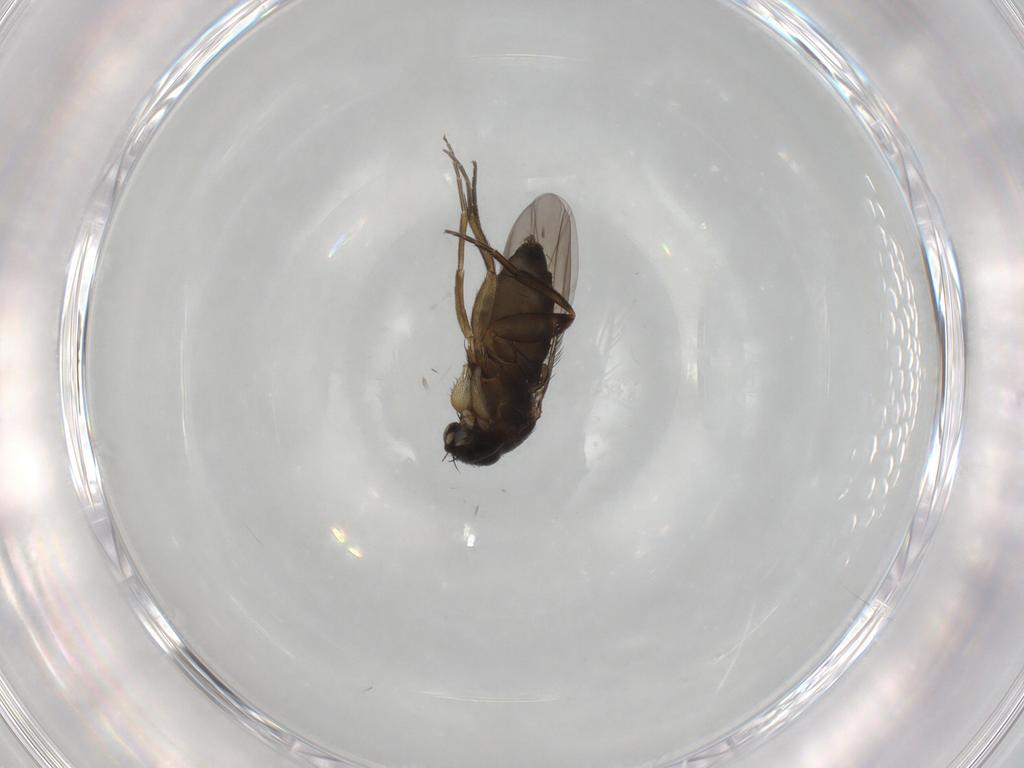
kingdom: Animalia
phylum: Arthropoda
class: Insecta
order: Diptera
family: Phoridae
